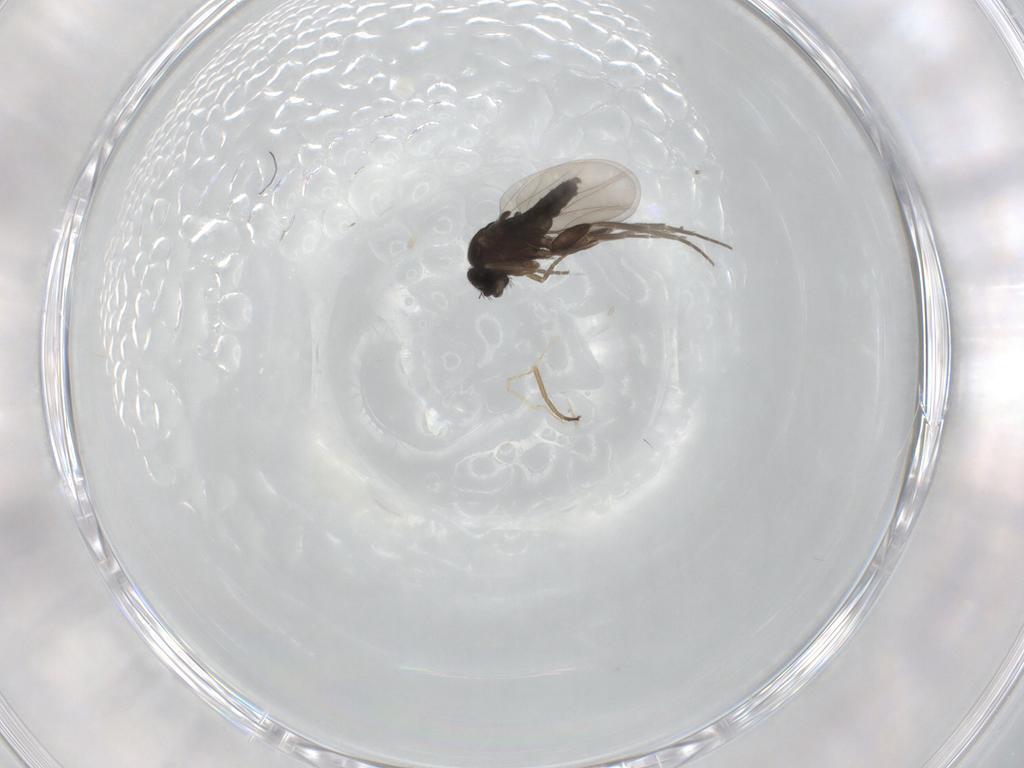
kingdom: Animalia
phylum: Arthropoda
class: Insecta
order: Diptera
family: Phoridae
